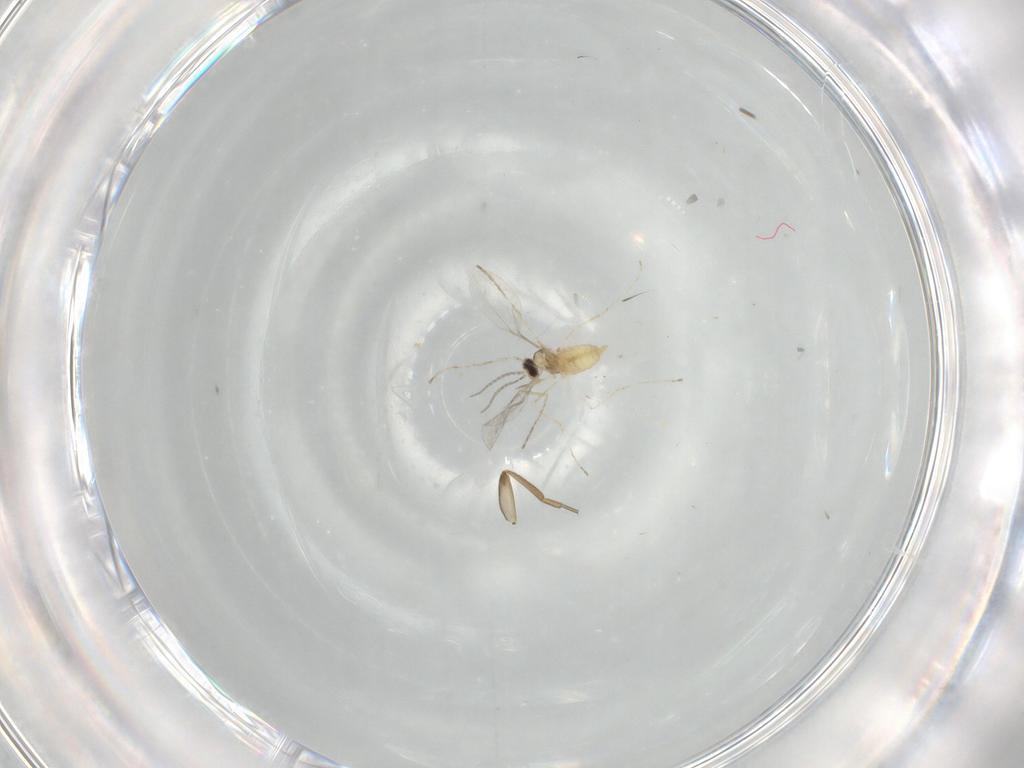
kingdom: Animalia
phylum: Arthropoda
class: Insecta
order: Diptera
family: Phoridae
